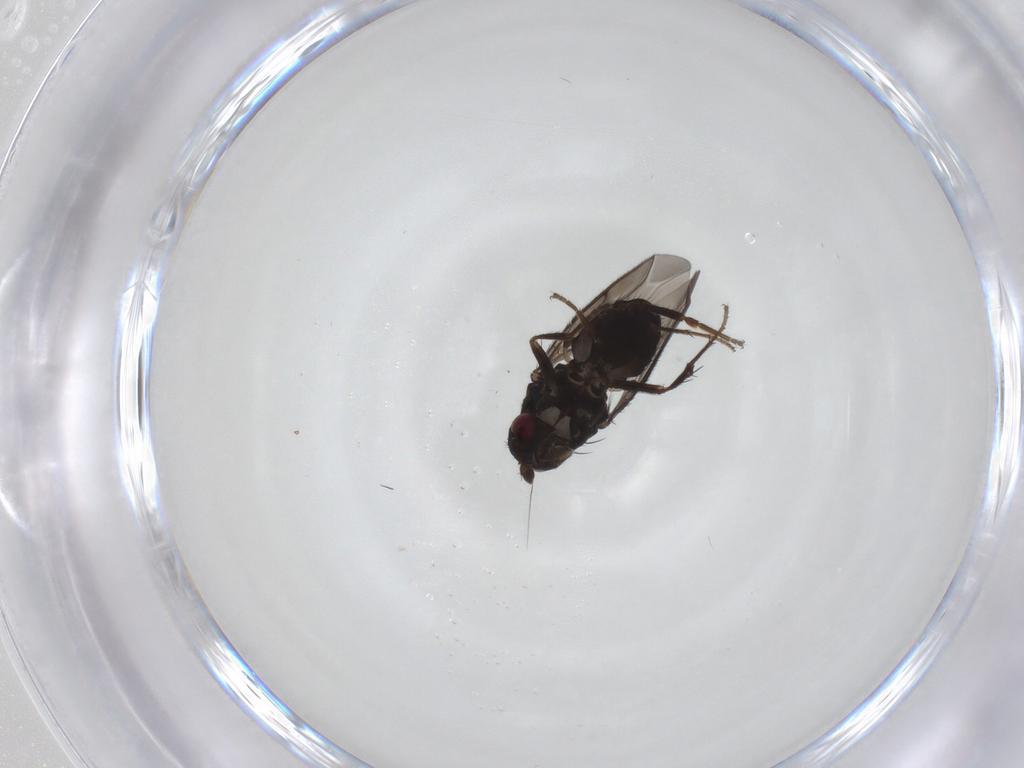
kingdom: Animalia
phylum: Arthropoda
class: Insecta
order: Diptera
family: Sphaeroceridae
